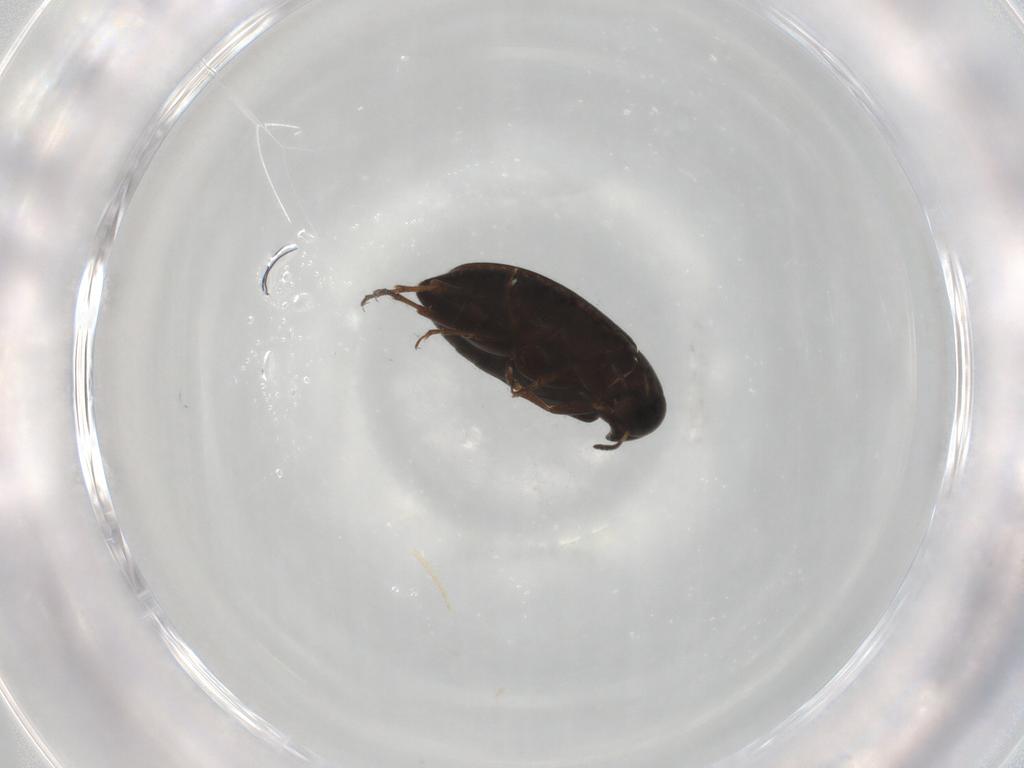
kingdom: Animalia
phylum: Arthropoda
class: Insecta
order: Coleoptera
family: Scraptiidae
